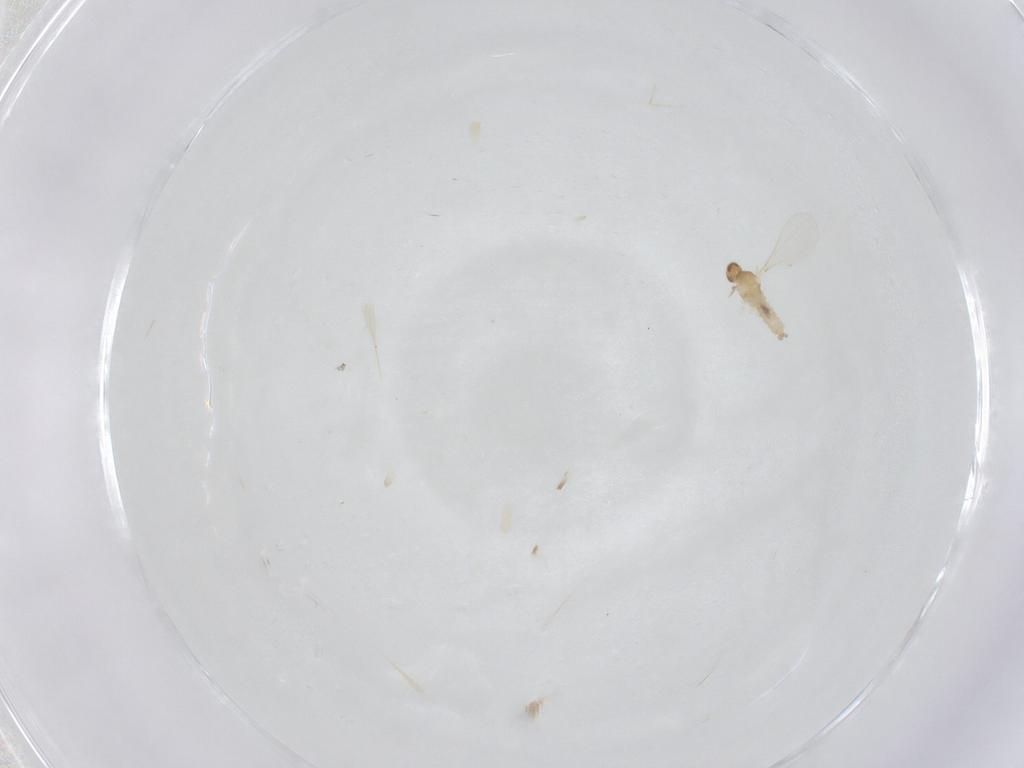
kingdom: Animalia
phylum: Arthropoda
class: Insecta
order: Diptera
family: Cecidomyiidae
